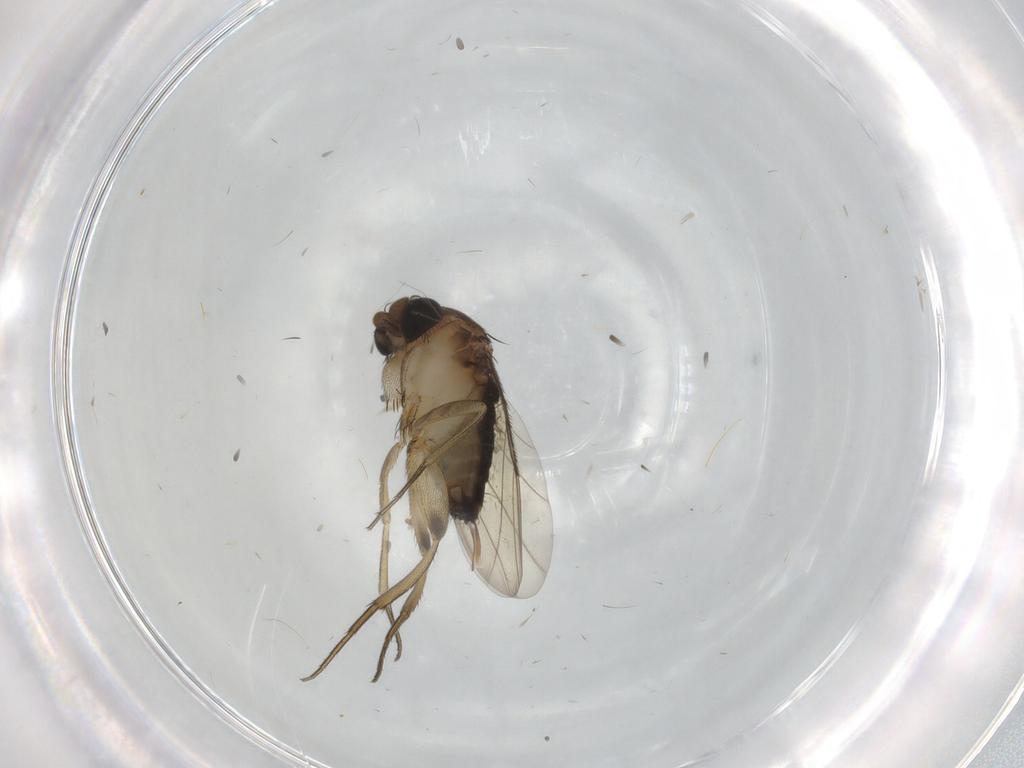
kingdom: Animalia
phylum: Arthropoda
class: Insecta
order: Diptera
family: Phoridae
